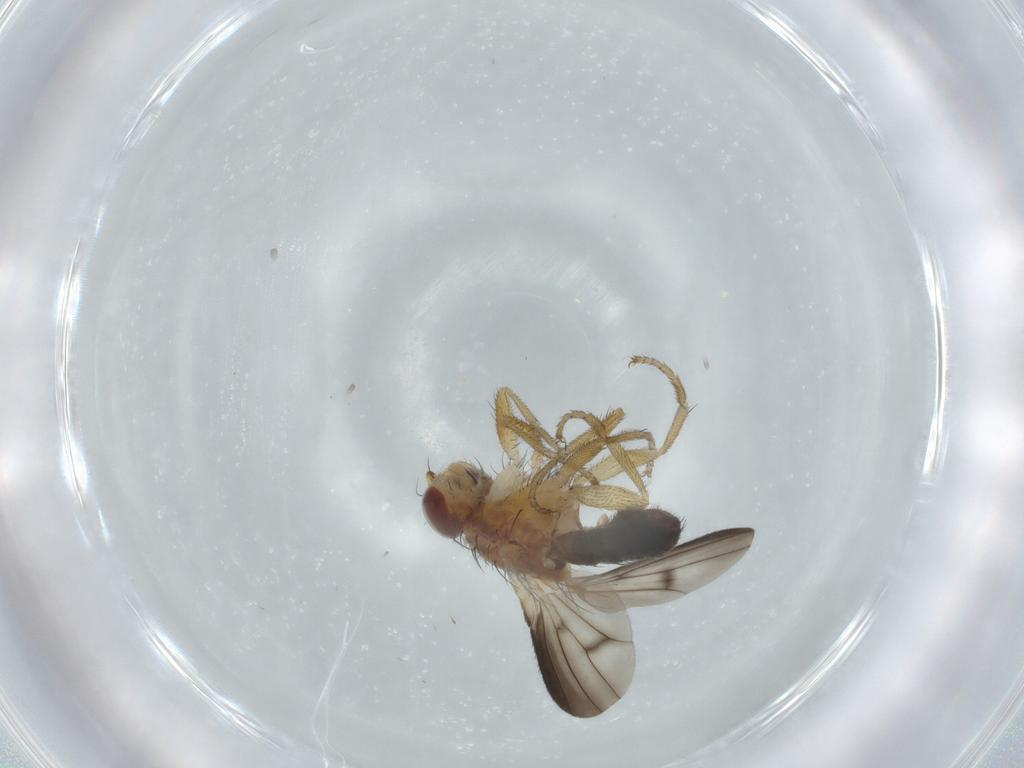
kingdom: Animalia
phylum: Arthropoda
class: Insecta
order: Diptera
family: Heleomyzidae
